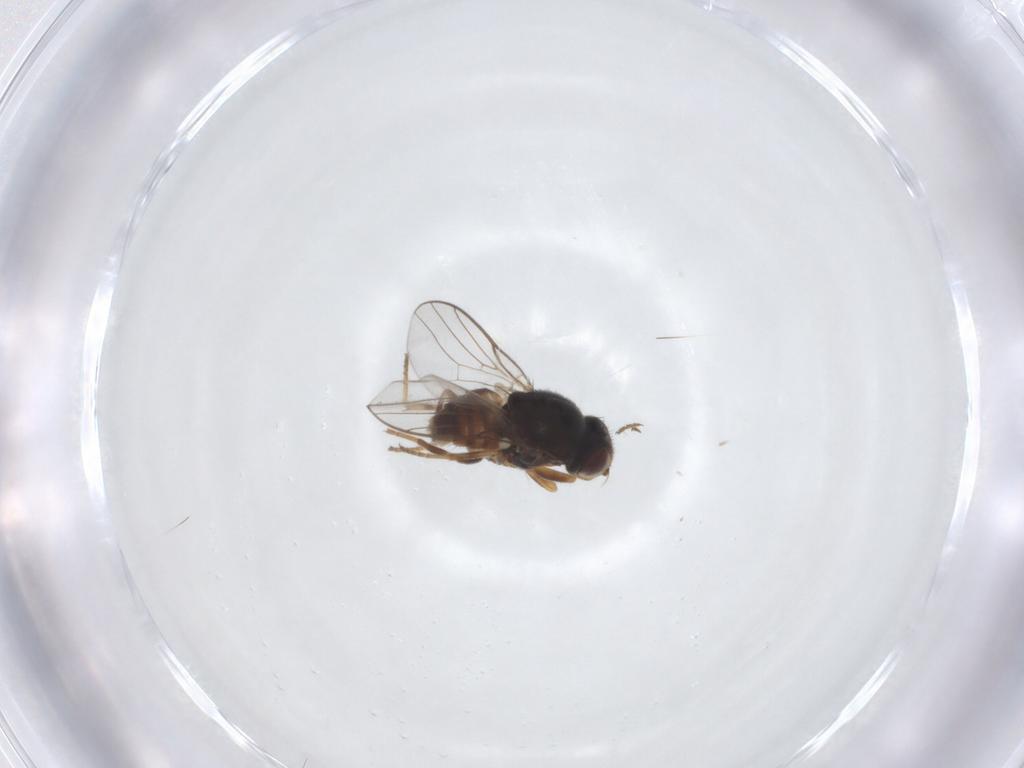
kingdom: Animalia
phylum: Arthropoda
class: Insecta
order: Diptera
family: Chloropidae
